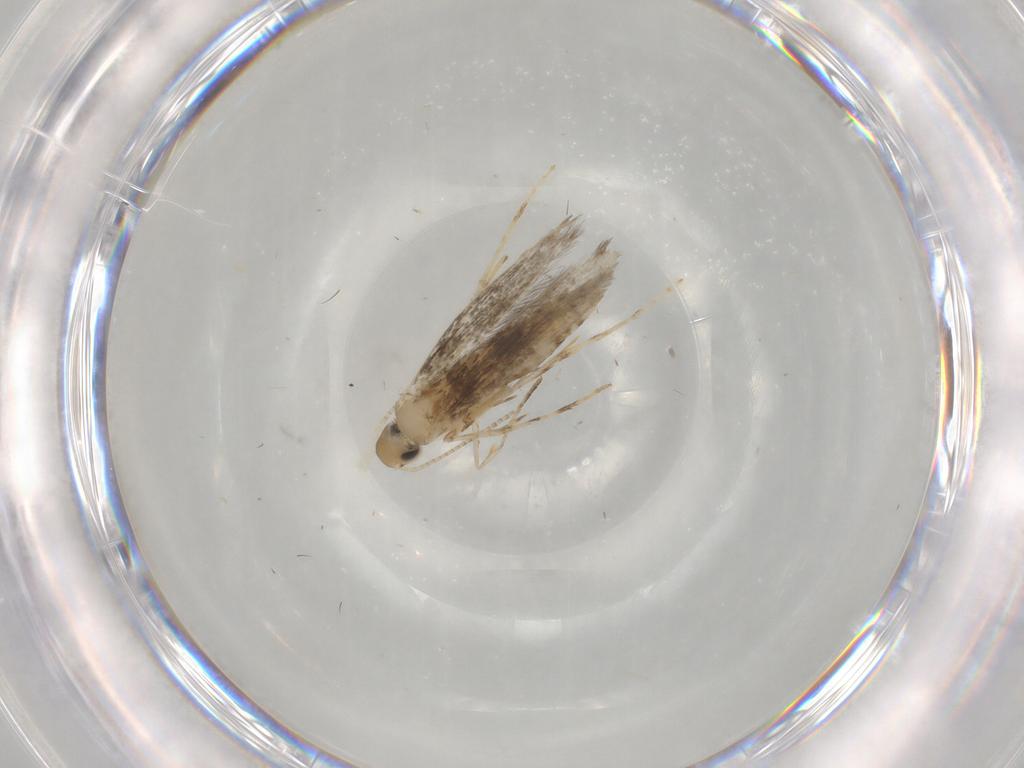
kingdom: Animalia
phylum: Arthropoda
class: Insecta
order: Lepidoptera
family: Gracillariidae
